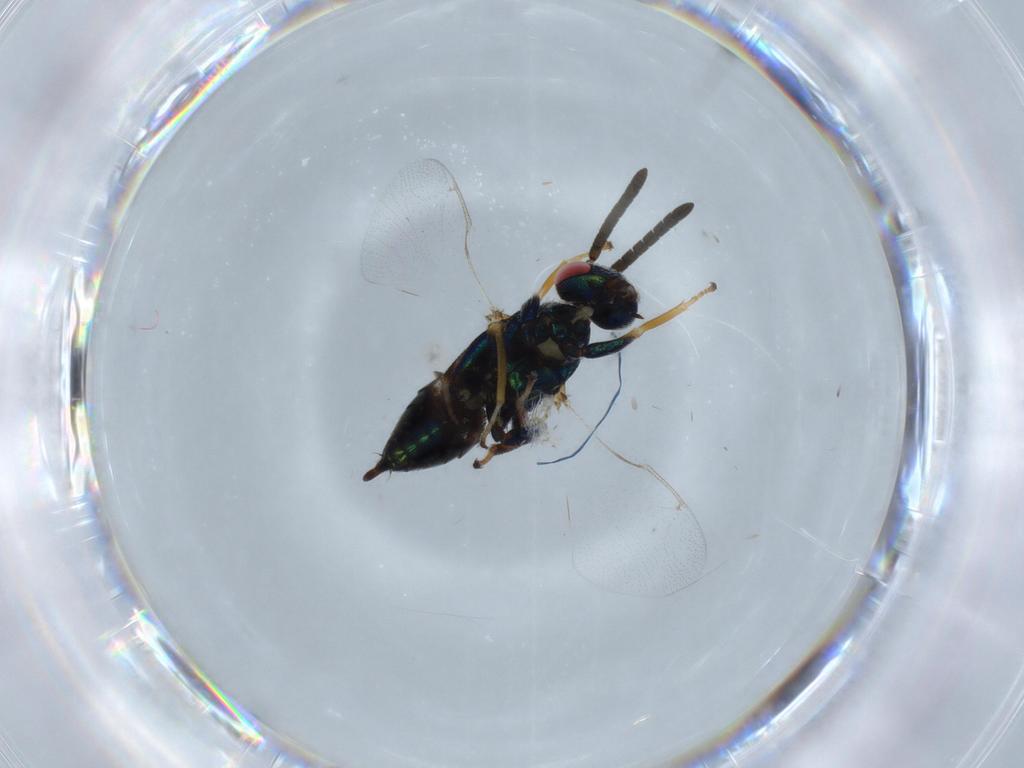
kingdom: Animalia
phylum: Arthropoda
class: Insecta
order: Hymenoptera
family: Torymidae
